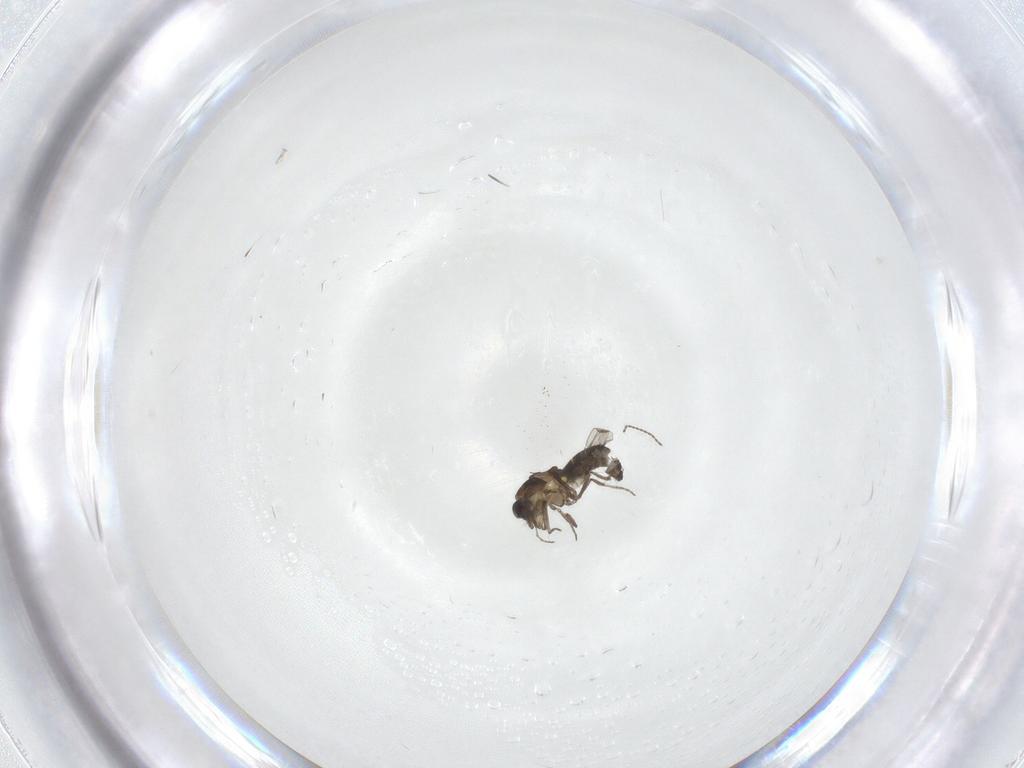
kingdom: Animalia
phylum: Arthropoda
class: Insecta
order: Diptera
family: Ceratopogonidae
